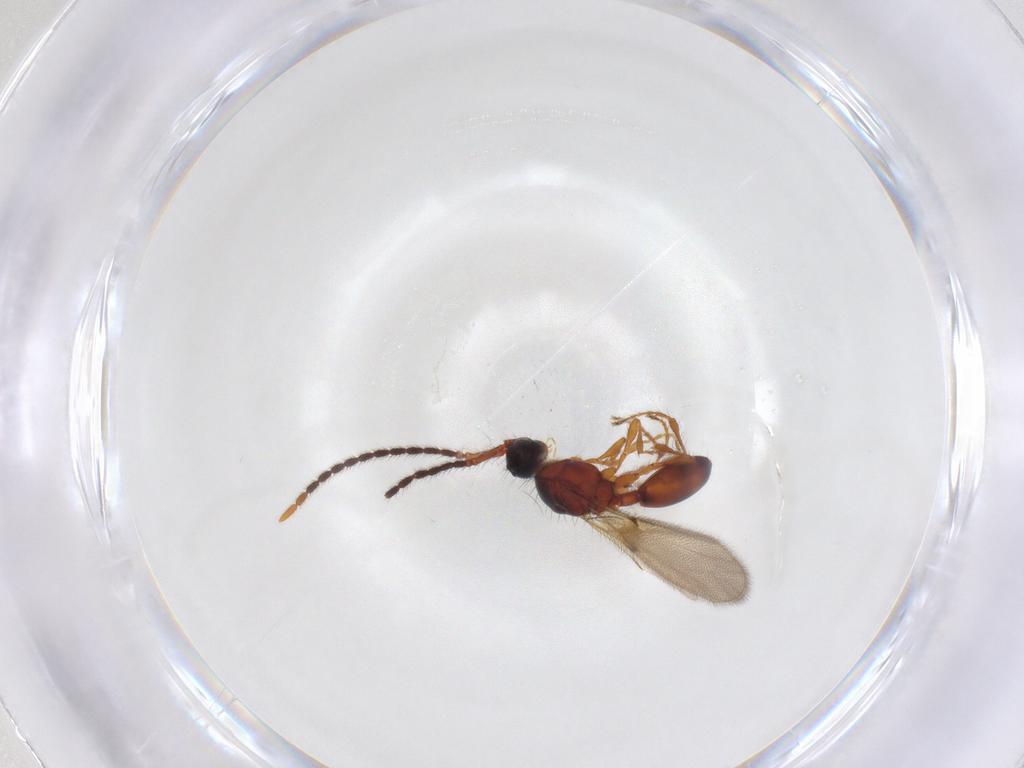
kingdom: Animalia
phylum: Arthropoda
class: Insecta
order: Hymenoptera
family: Diapriidae
